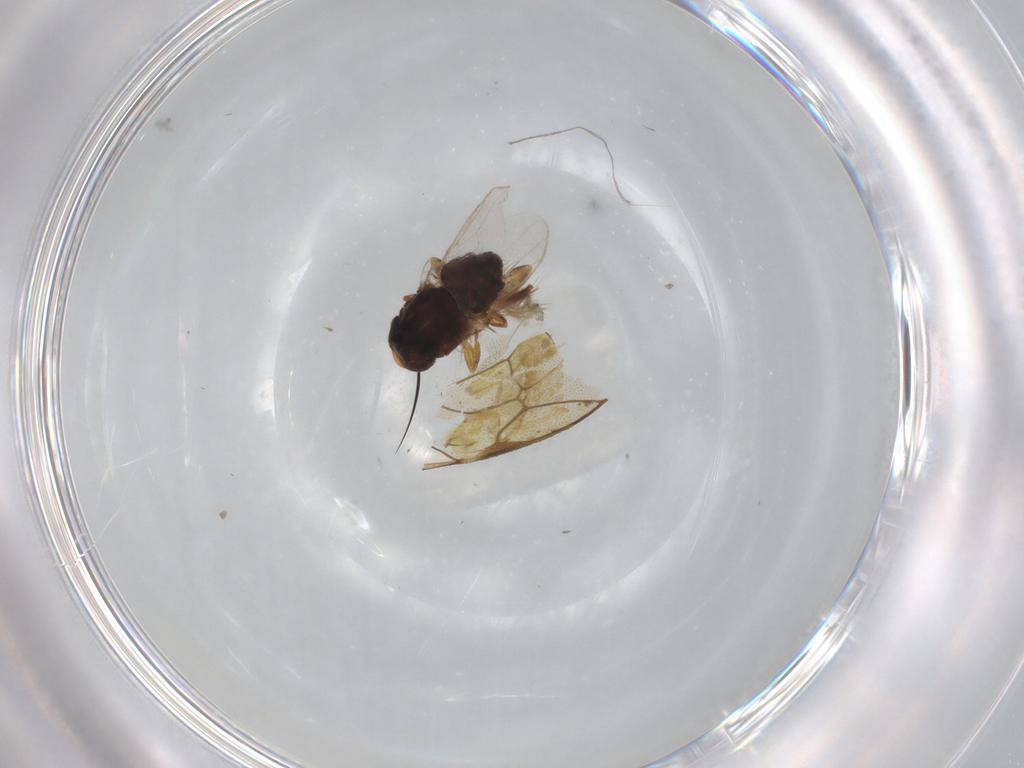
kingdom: Animalia
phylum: Arthropoda
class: Insecta
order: Diptera
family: Chloropidae
